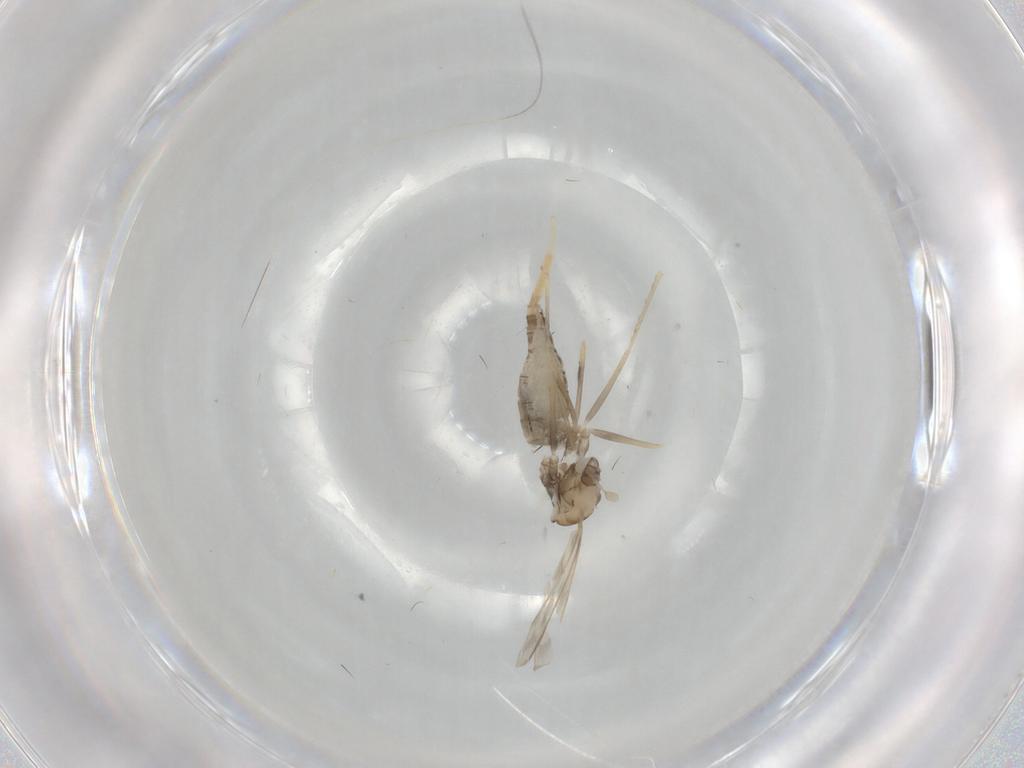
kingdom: Animalia
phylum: Arthropoda
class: Insecta
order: Diptera
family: Cecidomyiidae
